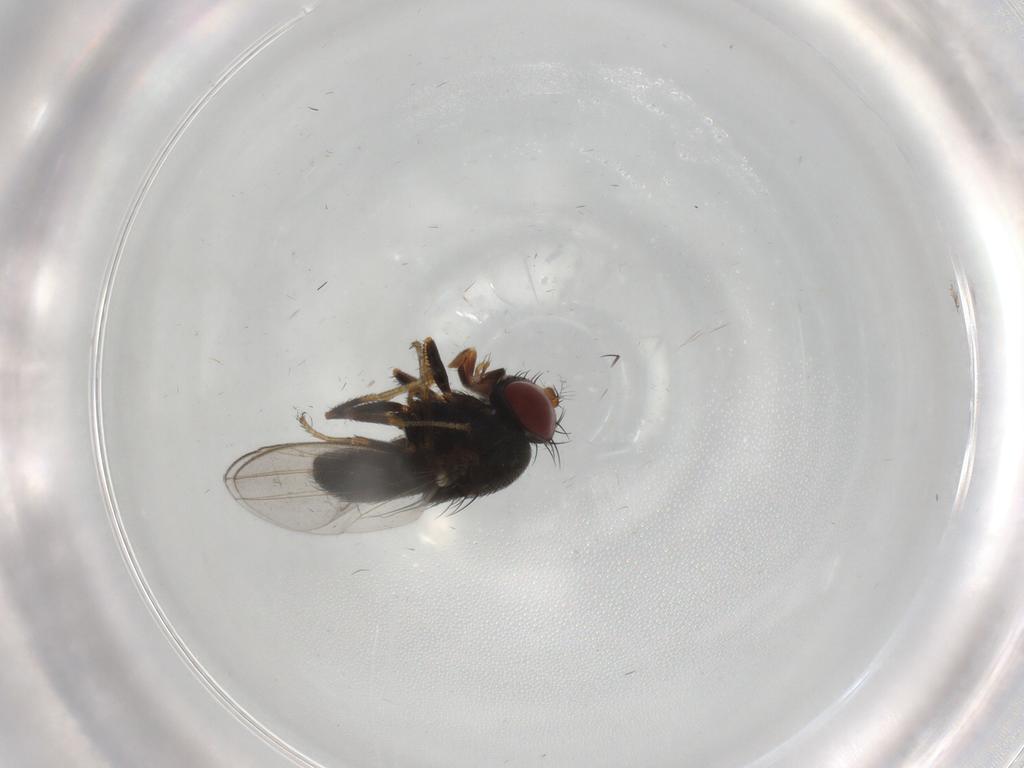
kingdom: Animalia
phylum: Arthropoda
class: Insecta
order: Diptera
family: Ephydridae
